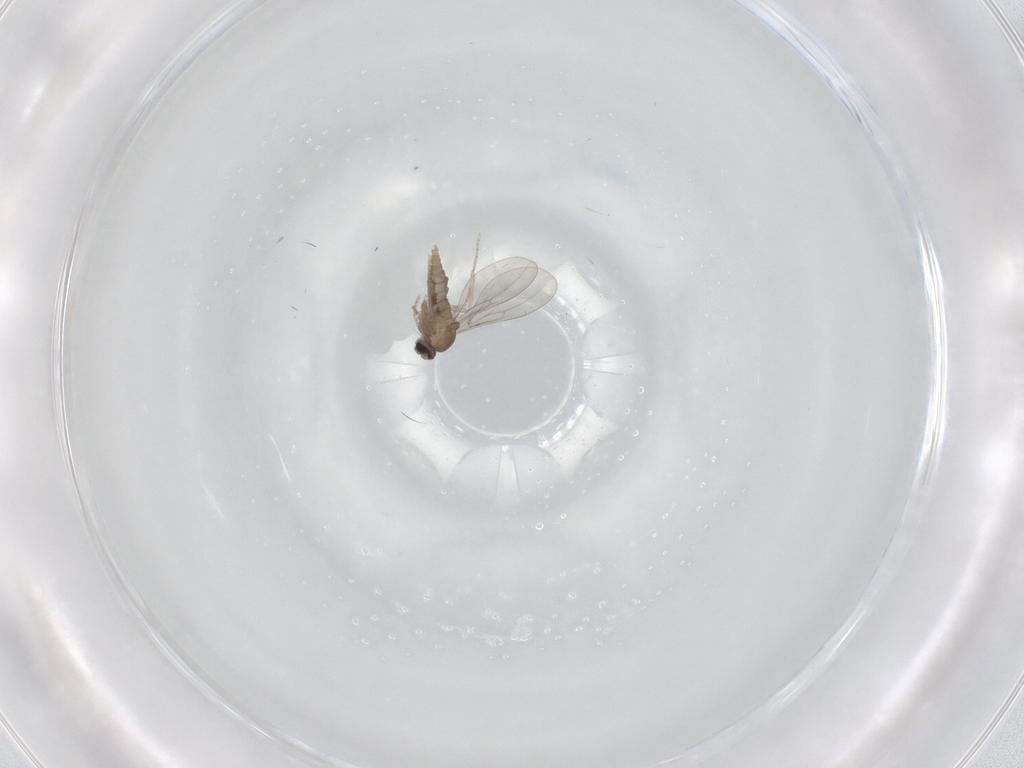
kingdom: Animalia
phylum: Arthropoda
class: Insecta
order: Diptera
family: Cecidomyiidae
